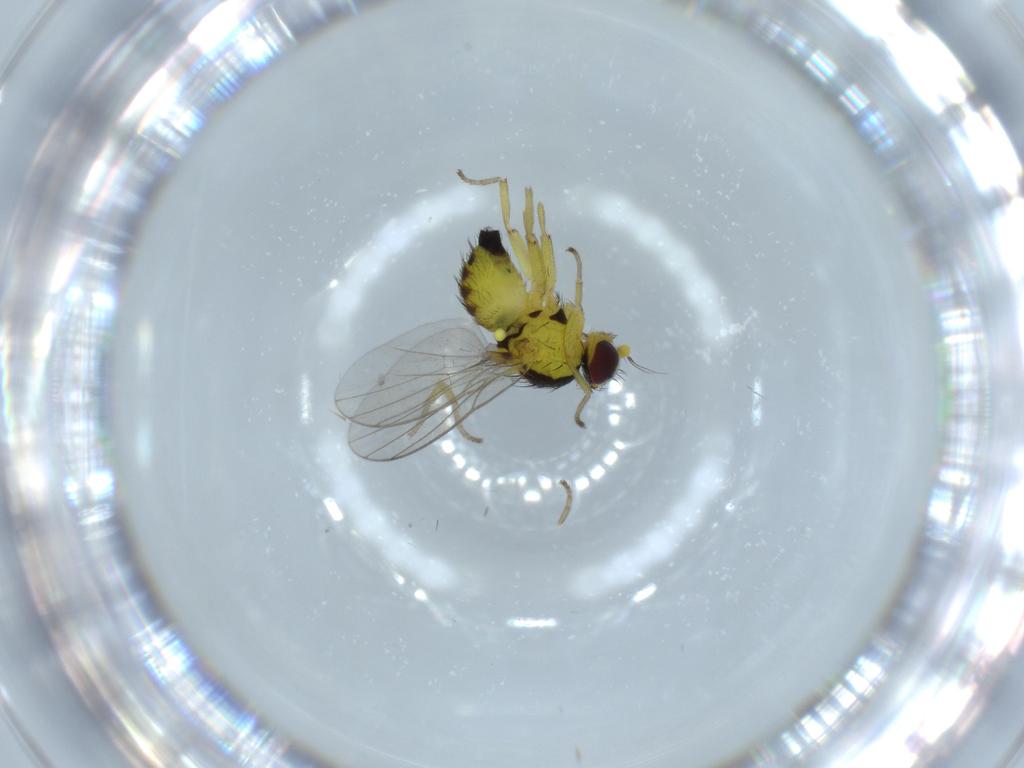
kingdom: Animalia
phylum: Arthropoda
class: Insecta
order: Diptera
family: Agromyzidae
